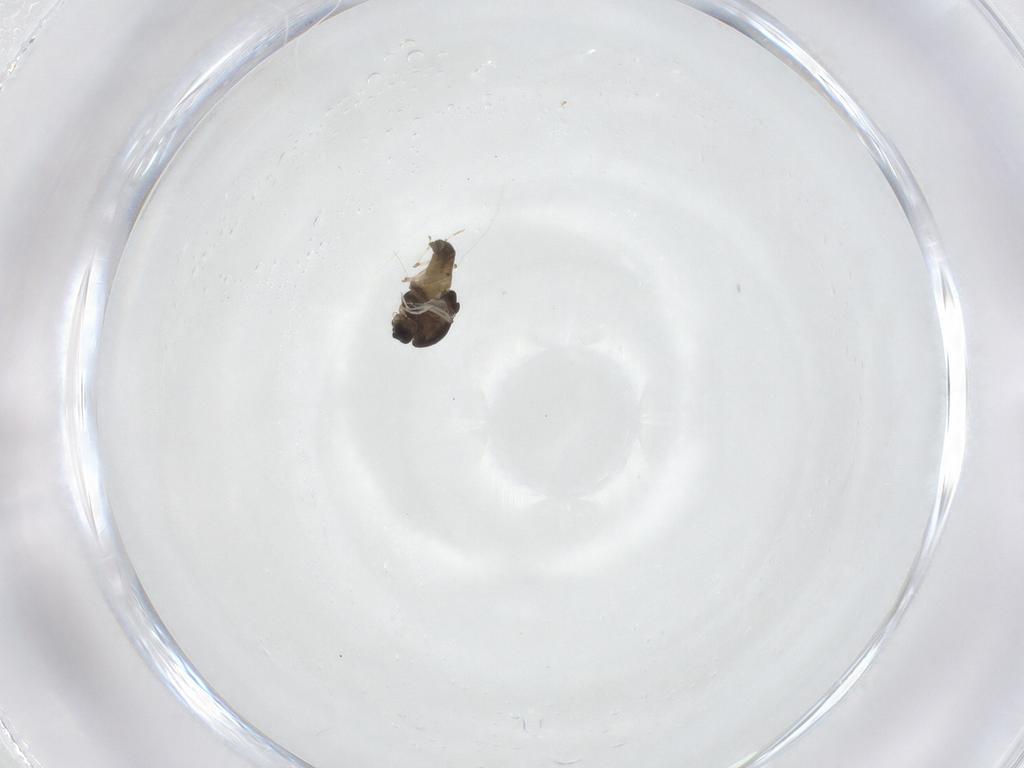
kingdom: Animalia
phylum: Arthropoda
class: Insecta
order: Diptera
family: Chironomidae
